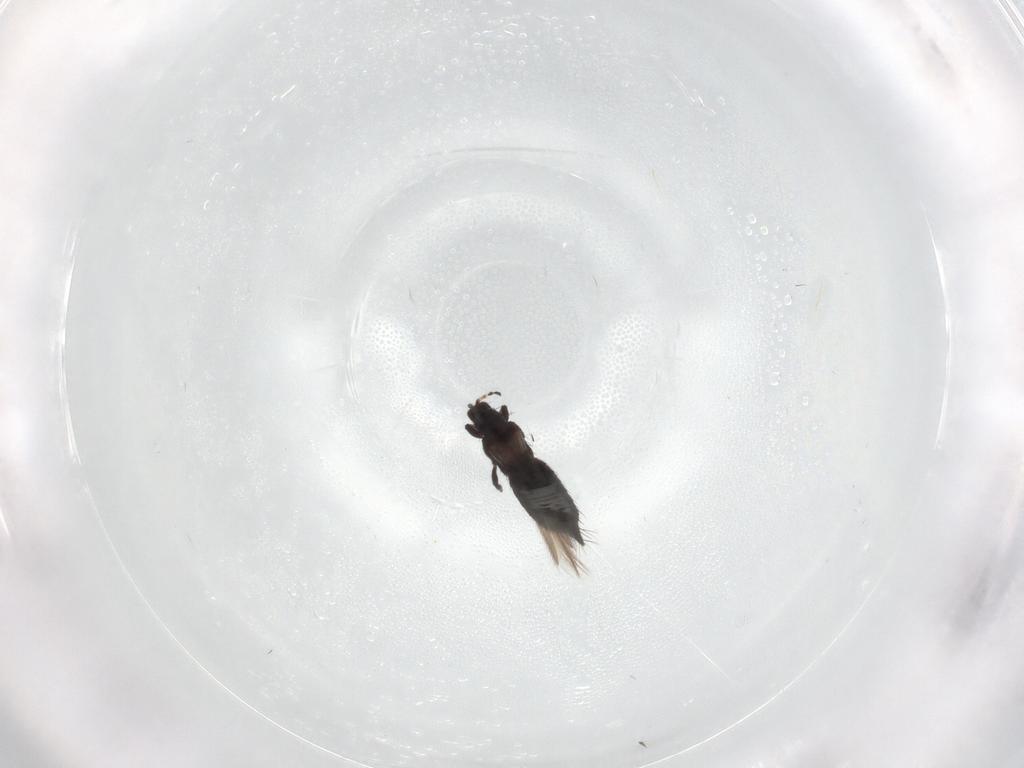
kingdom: Animalia
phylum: Arthropoda
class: Insecta
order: Thysanoptera
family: Thripidae
